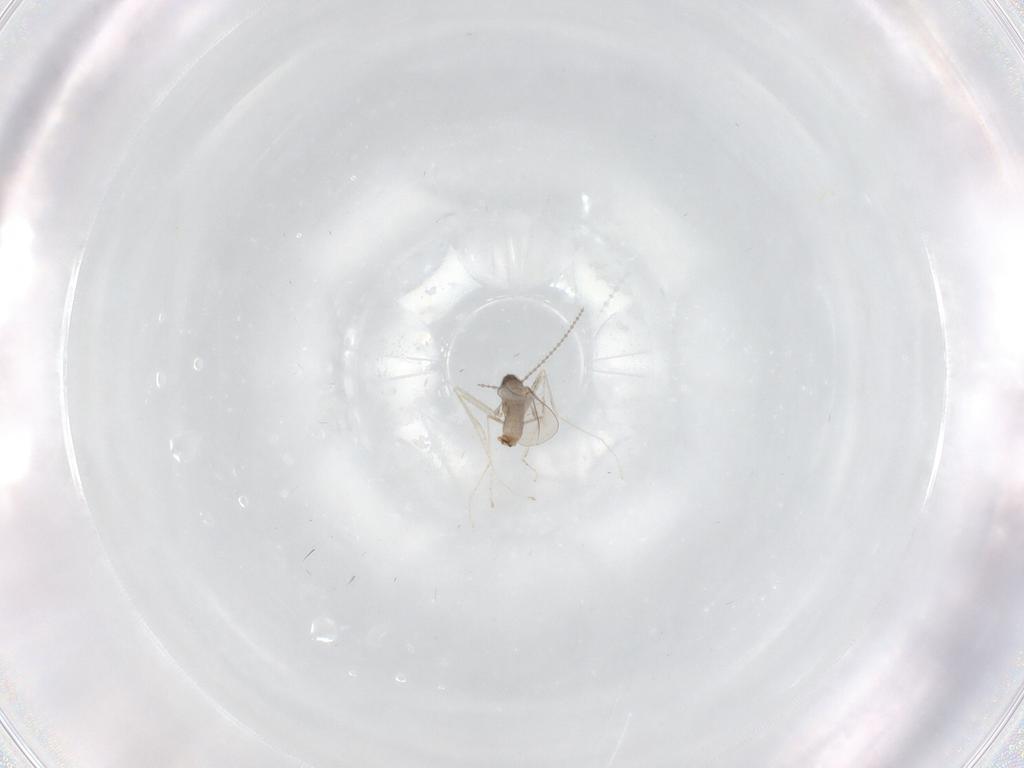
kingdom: Animalia
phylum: Arthropoda
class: Insecta
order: Diptera
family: Cecidomyiidae
